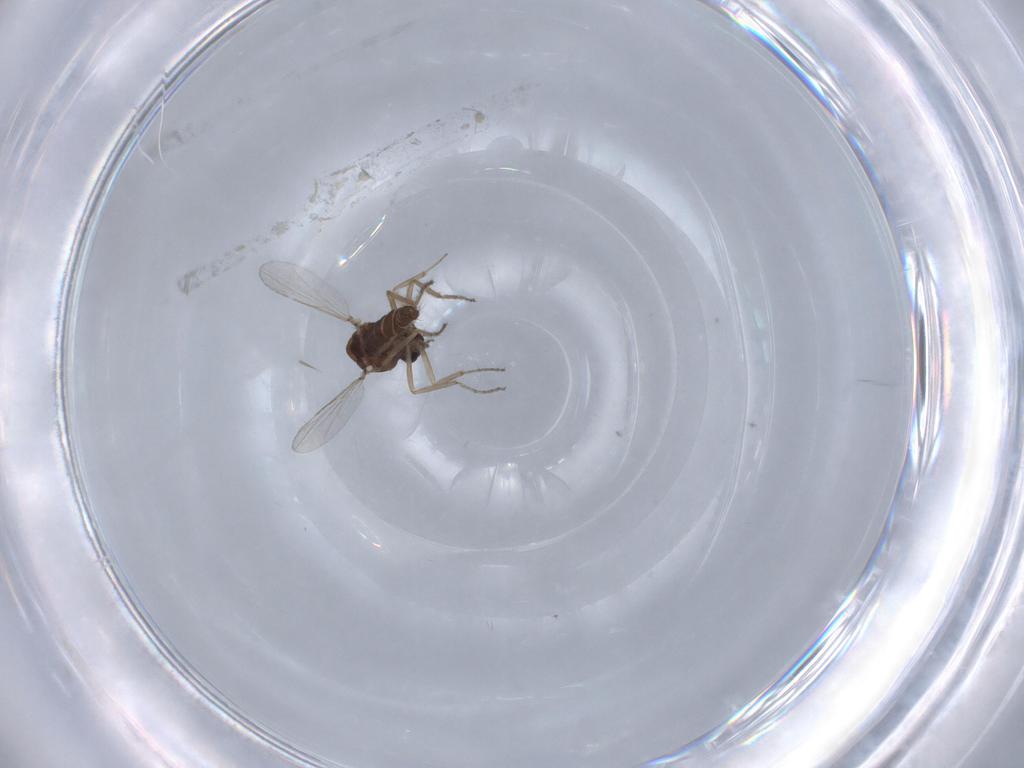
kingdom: Animalia
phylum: Arthropoda
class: Insecta
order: Diptera
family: Ceratopogonidae
